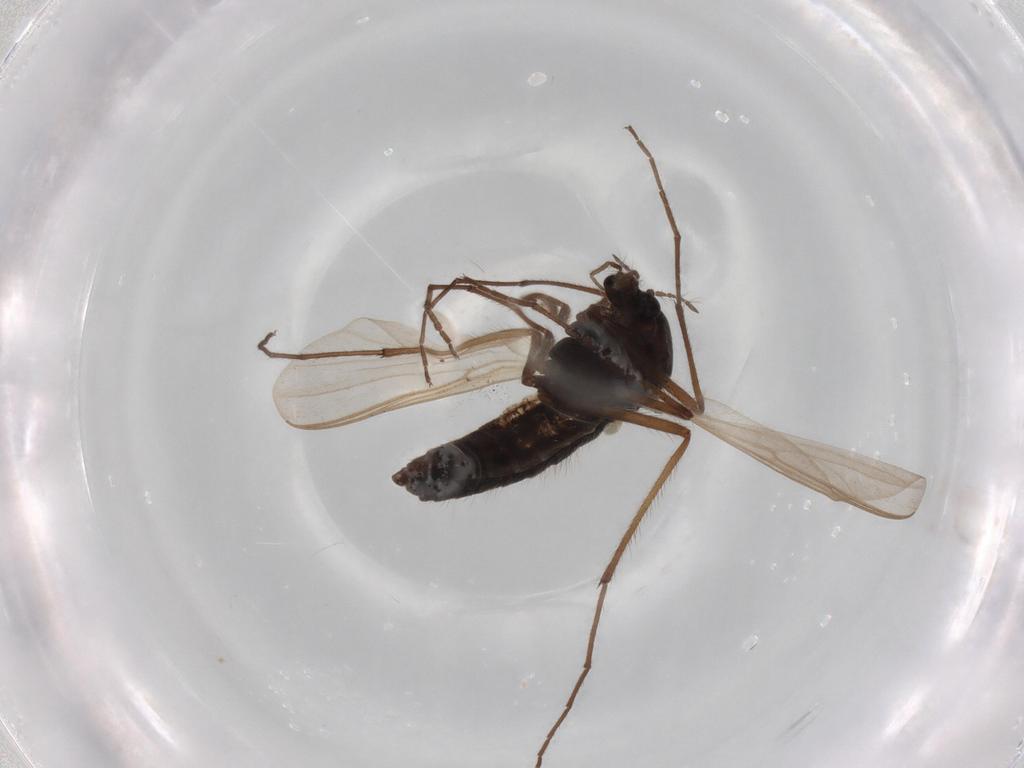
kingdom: Animalia
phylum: Arthropoda
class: Insecta
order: Diptera
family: Hybotidae
